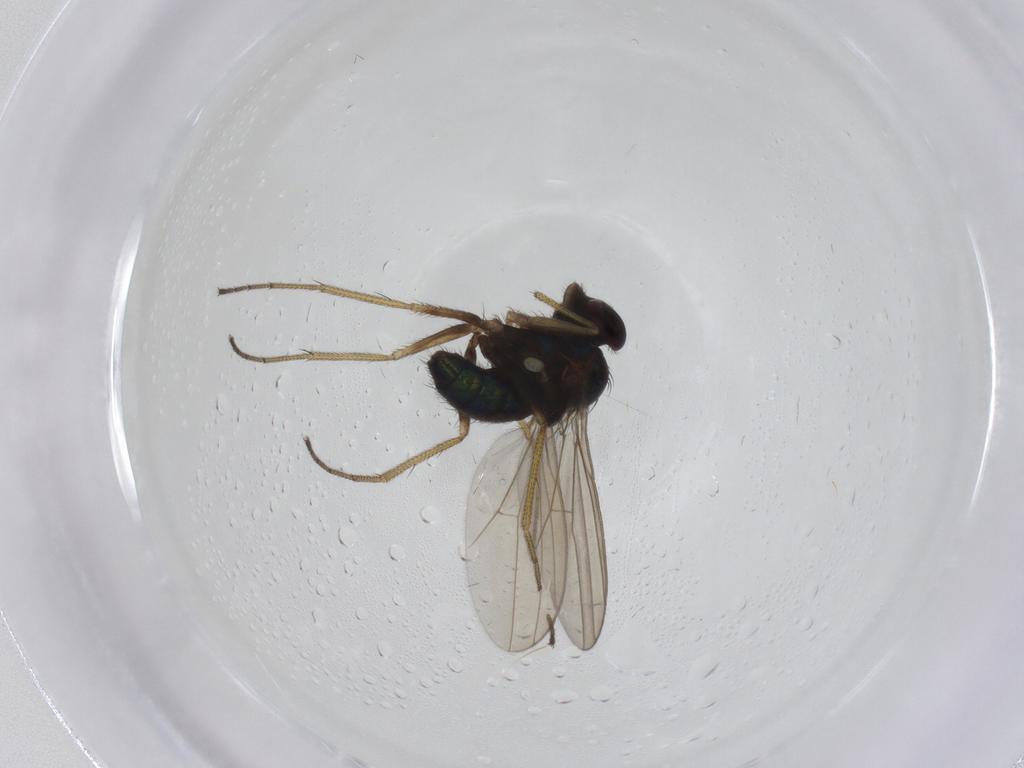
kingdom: Animalia
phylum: Arthropoda
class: Insecta
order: Diptera
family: Dolichopodidae
